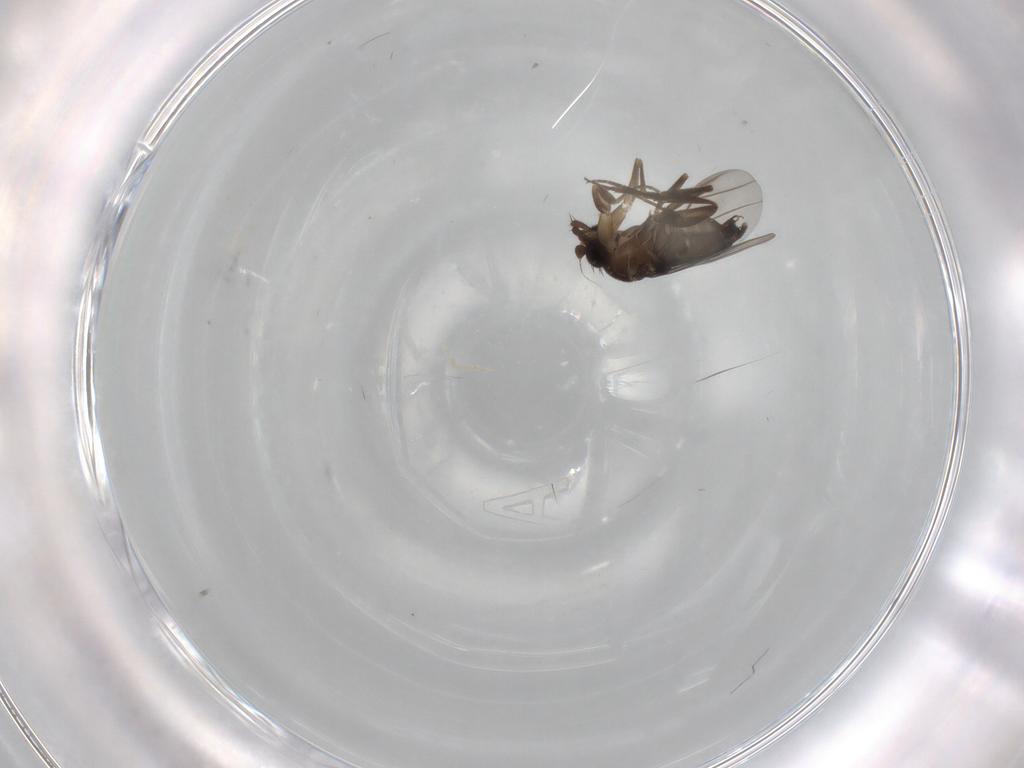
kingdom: Animalia
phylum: Arthropoda
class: Insecta
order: Diptera
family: Phoridae
